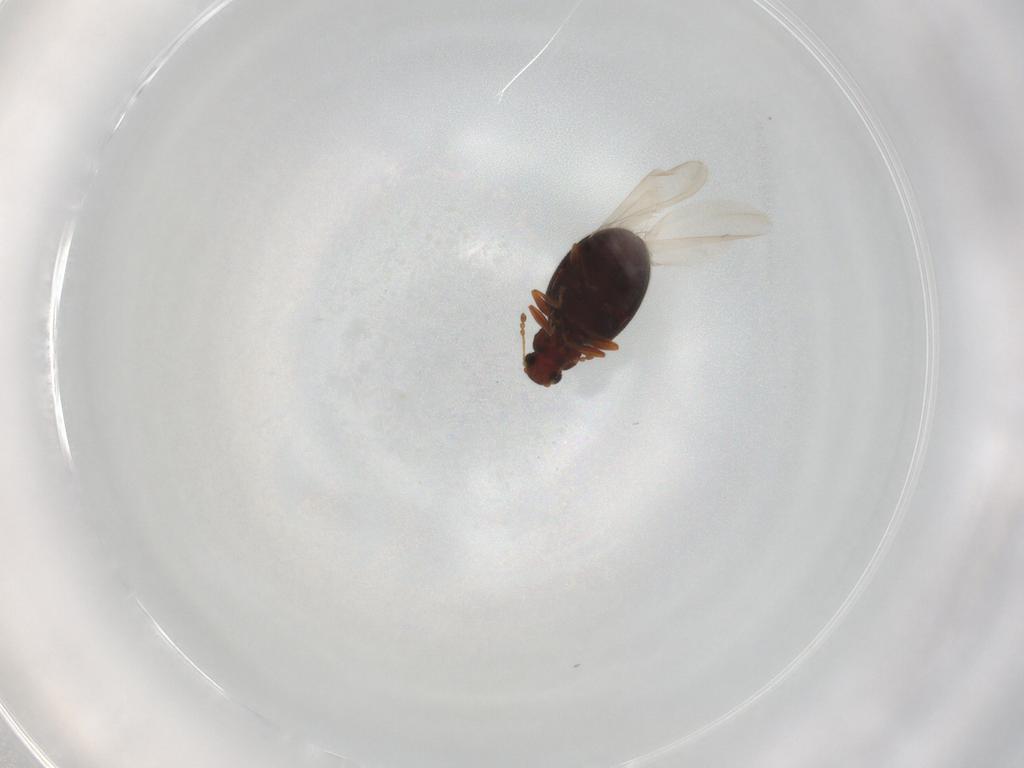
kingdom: Animalia
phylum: Arthropoda
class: Insecta
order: Coleoptera
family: Latridiidae
